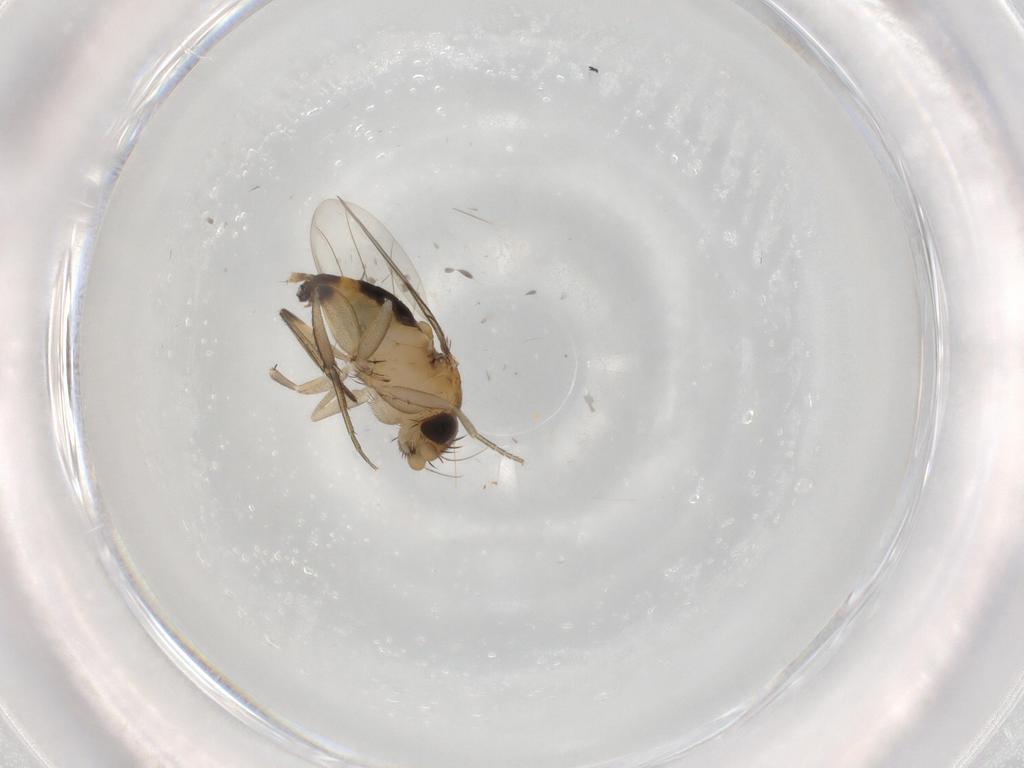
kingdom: Animalia
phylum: Arthropoda
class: Insecta
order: Diptera
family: Phoridae
